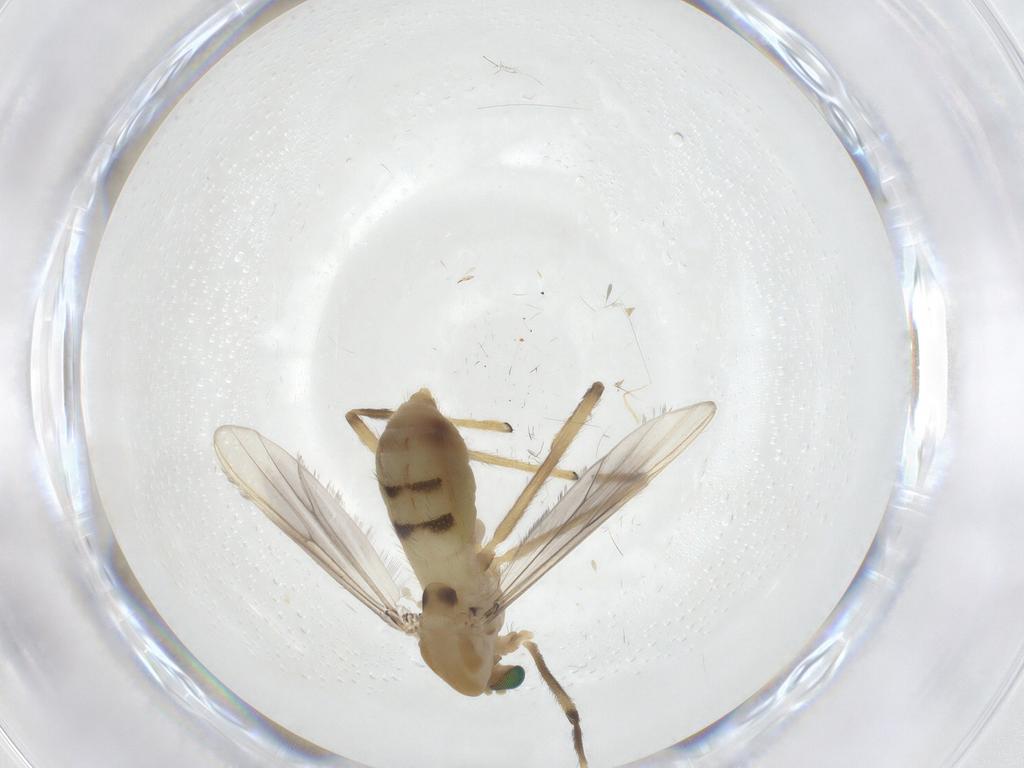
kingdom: Animalia
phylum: Arthropoda
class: Insecta
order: Diptera
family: Chironomidae
